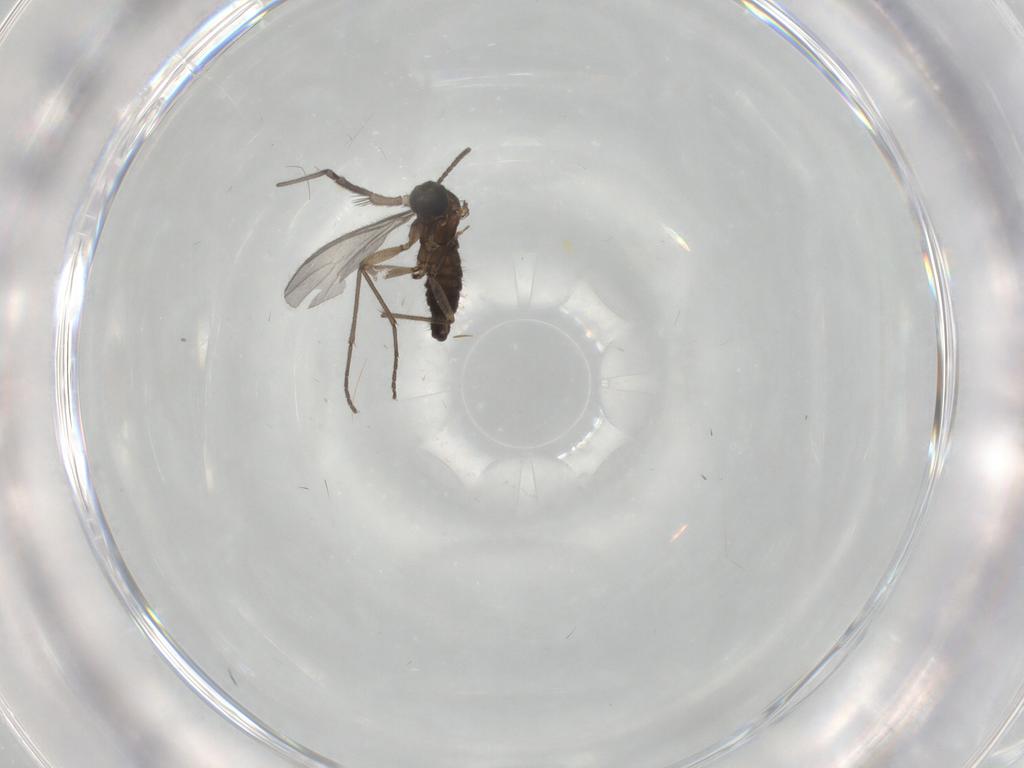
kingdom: Animalia
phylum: Arthropoda
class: Insecta
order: Diptera
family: Sciaridae
